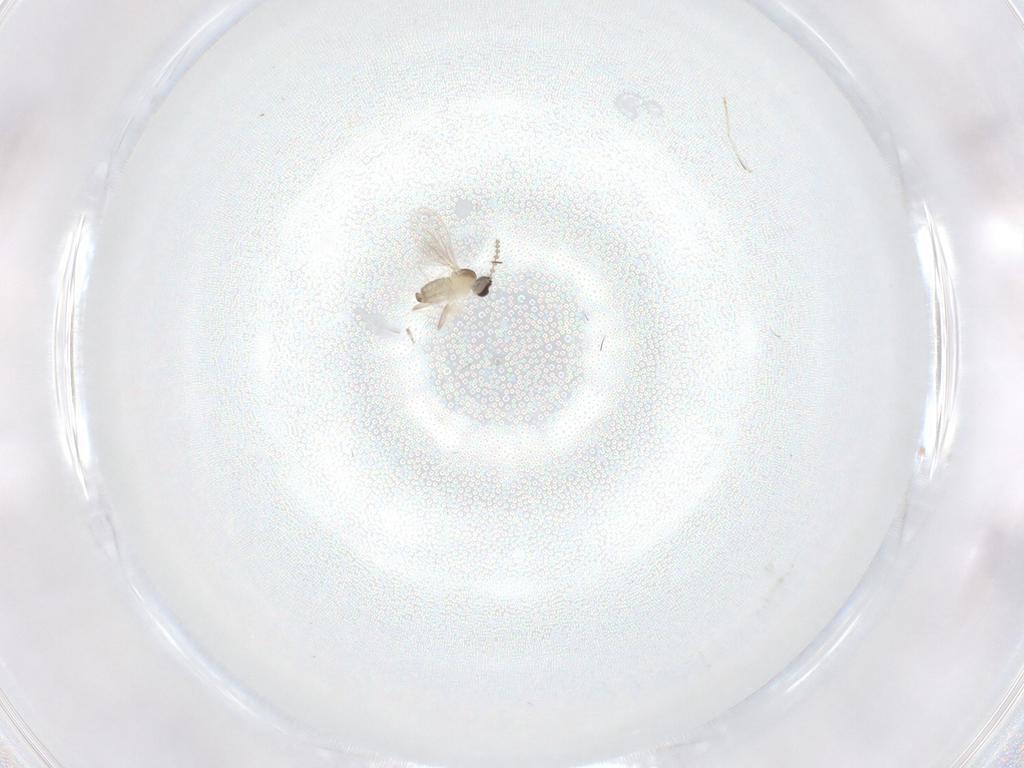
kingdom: Animalia
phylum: Arthropoda
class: Insecta
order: Diptera
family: Cecidomyiidae
